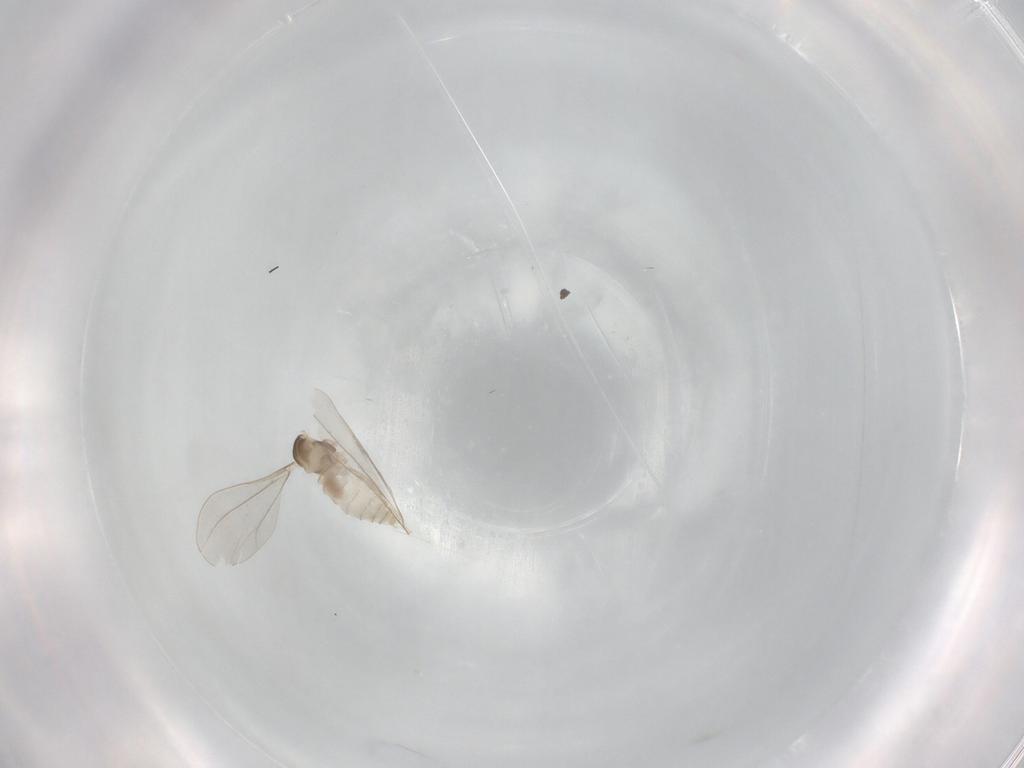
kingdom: Animalia
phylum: Arthropoda
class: Insecta
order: Diptera
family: Cecidomyiidae
